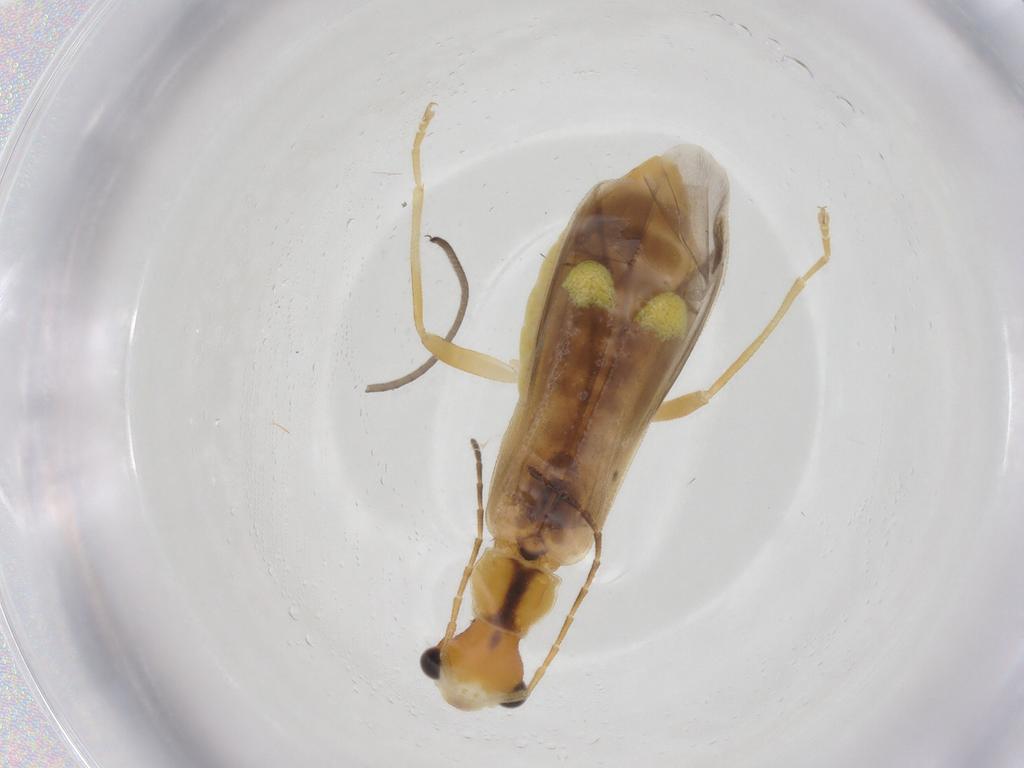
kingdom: Animalia
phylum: Arthropoda
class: Insecta
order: Coleoptera
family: Cantharidae
